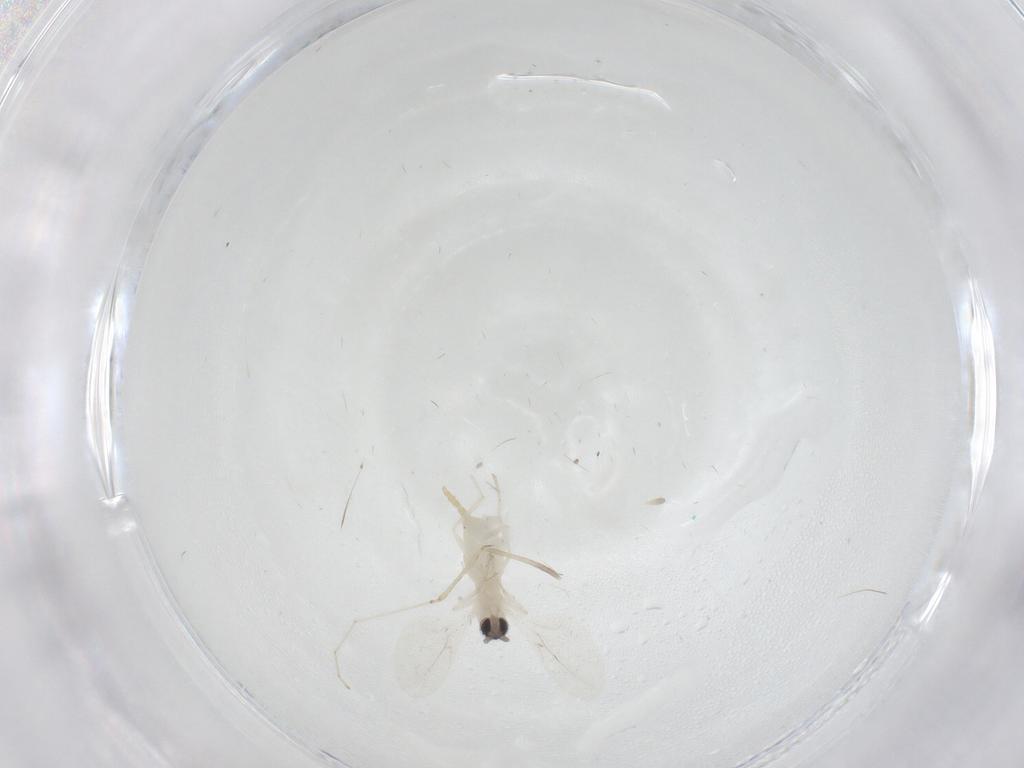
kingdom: Animalia
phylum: Arthropoda
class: Insecta
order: Diptera
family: Cecidomyiidae
